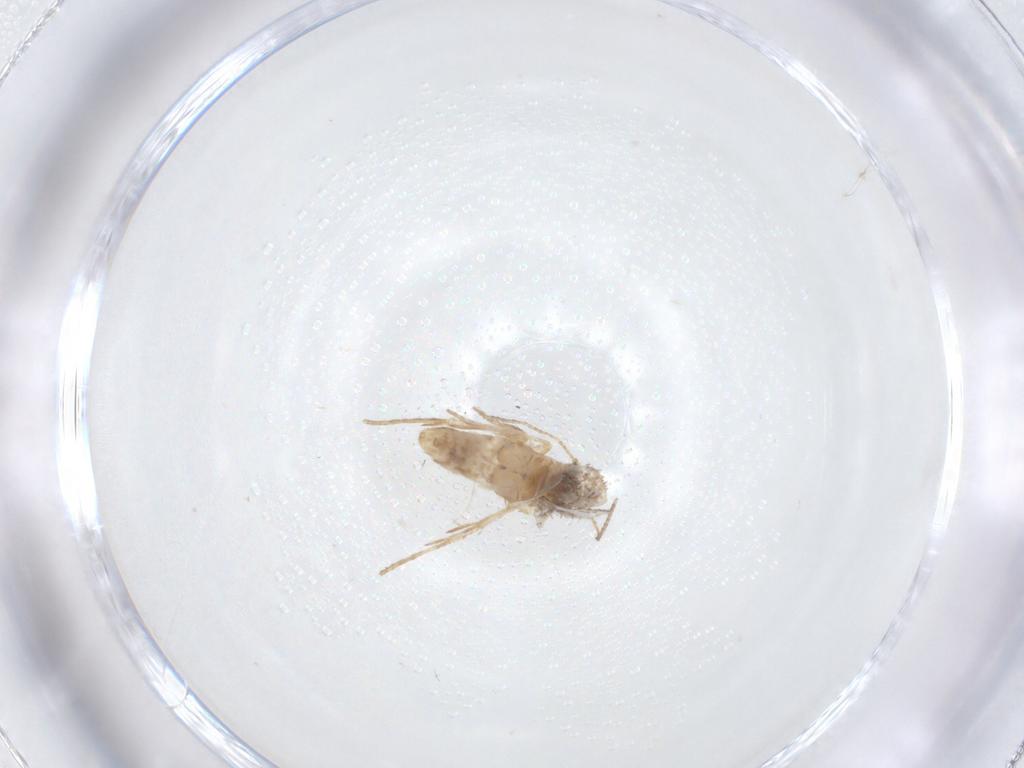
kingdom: Animalia
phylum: Arthropoda
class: Insecta
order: Lepidoptera
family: Nepticulidae
